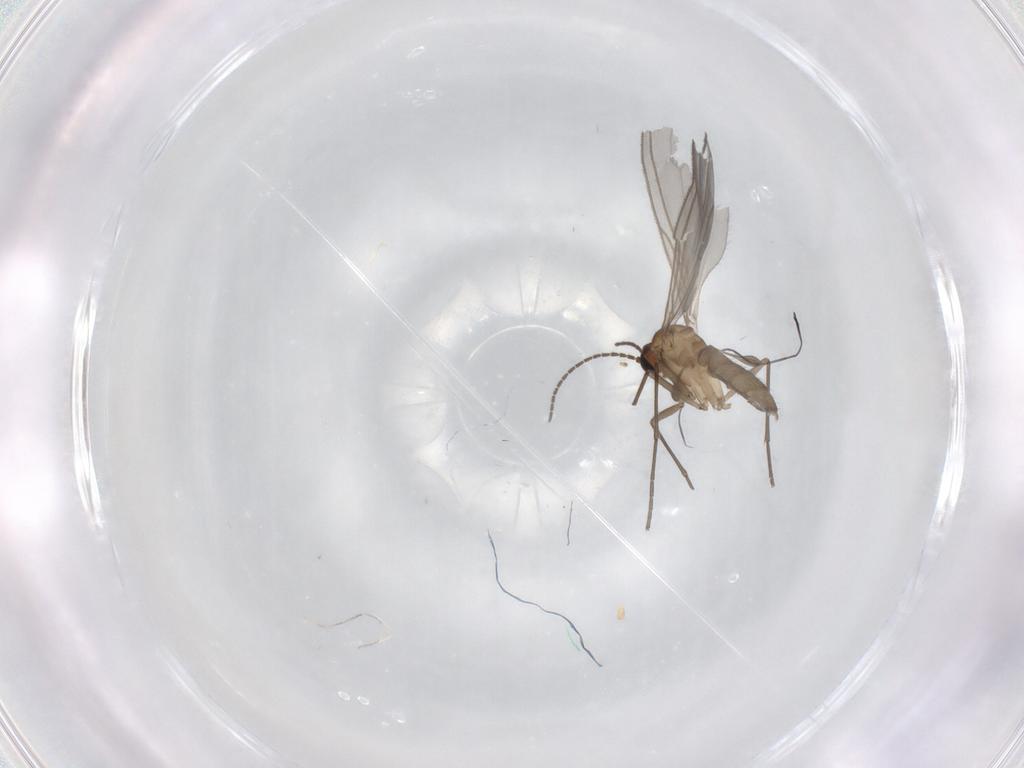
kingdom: Animalia
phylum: Arthropoda
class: Insecta
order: Diptera
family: Sciaridae
